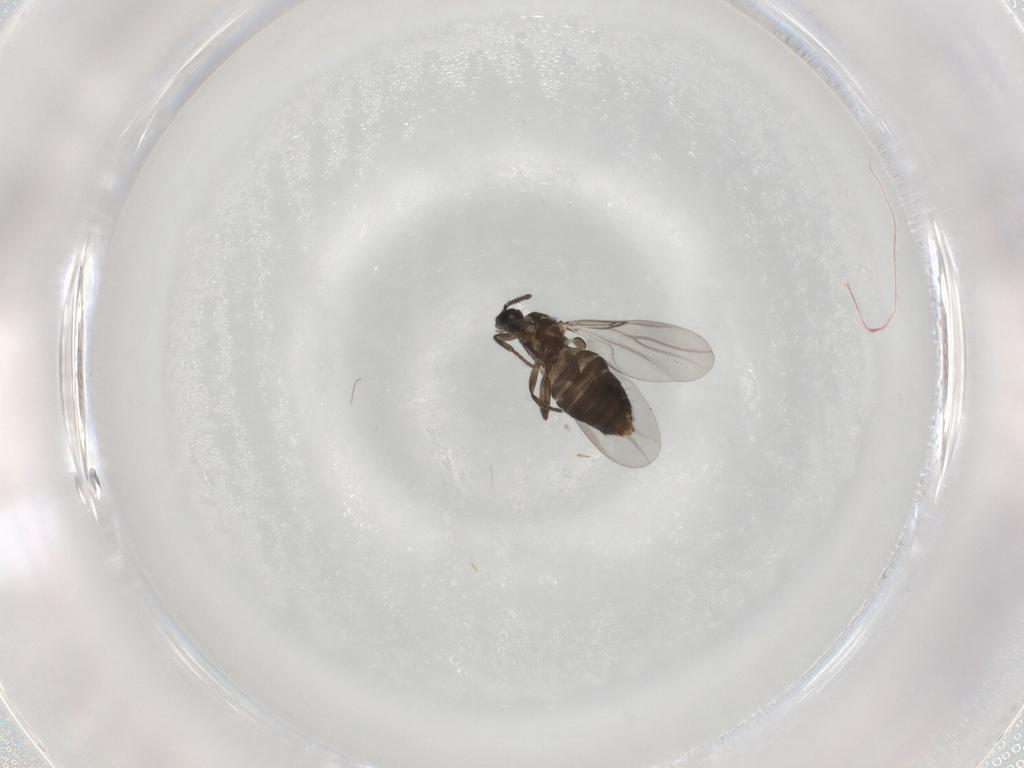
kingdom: Animalia
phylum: Arthropoda
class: Insecta
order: Diptera
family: Scatopsidae
